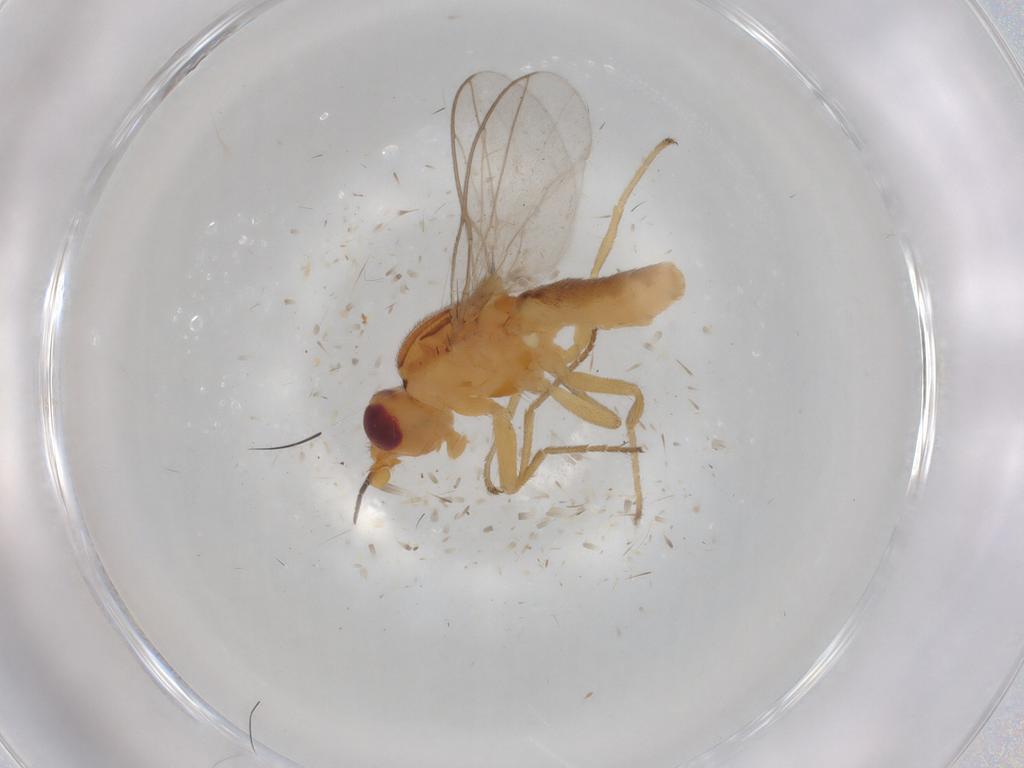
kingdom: Animalia
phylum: Arthropoda
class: Insecta
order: Diptera
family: Chloropidae
